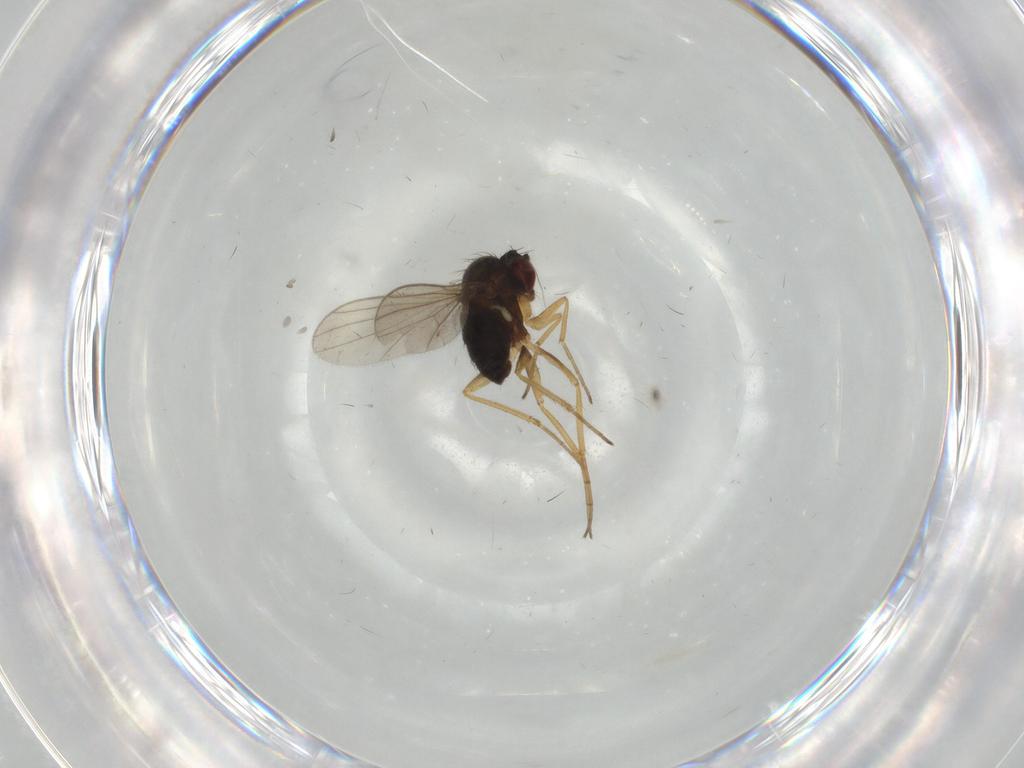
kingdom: Animalia
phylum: Arthropoda
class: Insecta
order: Diptera
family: Dolichopodidae
